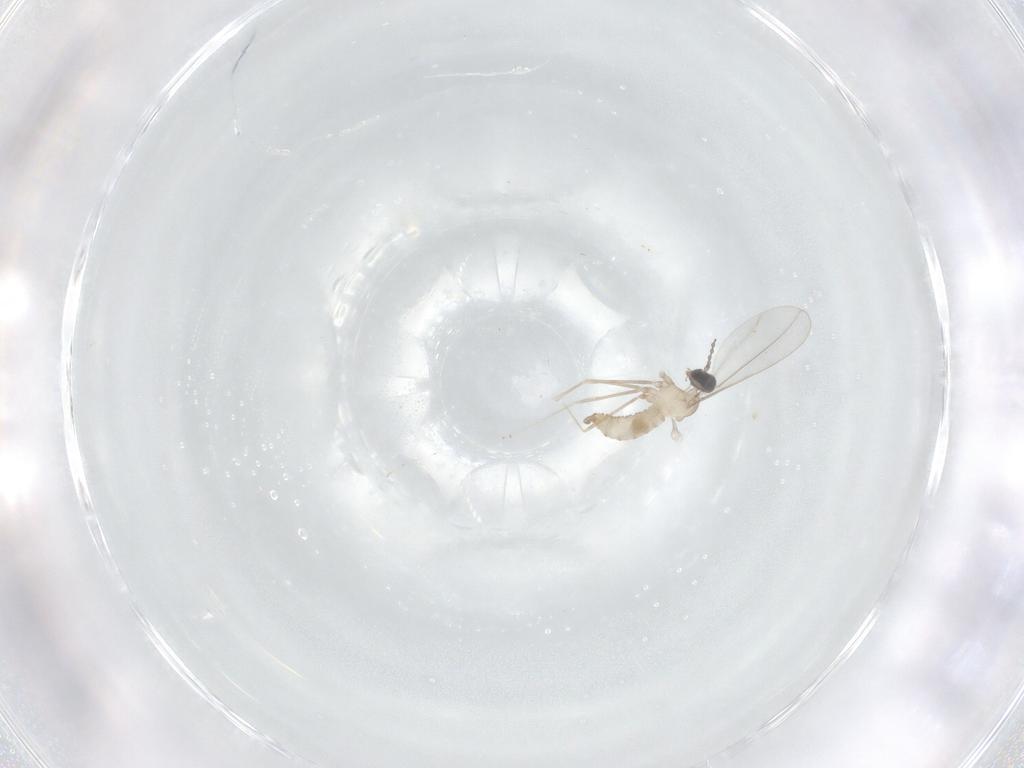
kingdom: Animalia
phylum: Arthropoda
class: Insecta
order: Diptera
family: Cecidomyiidae
